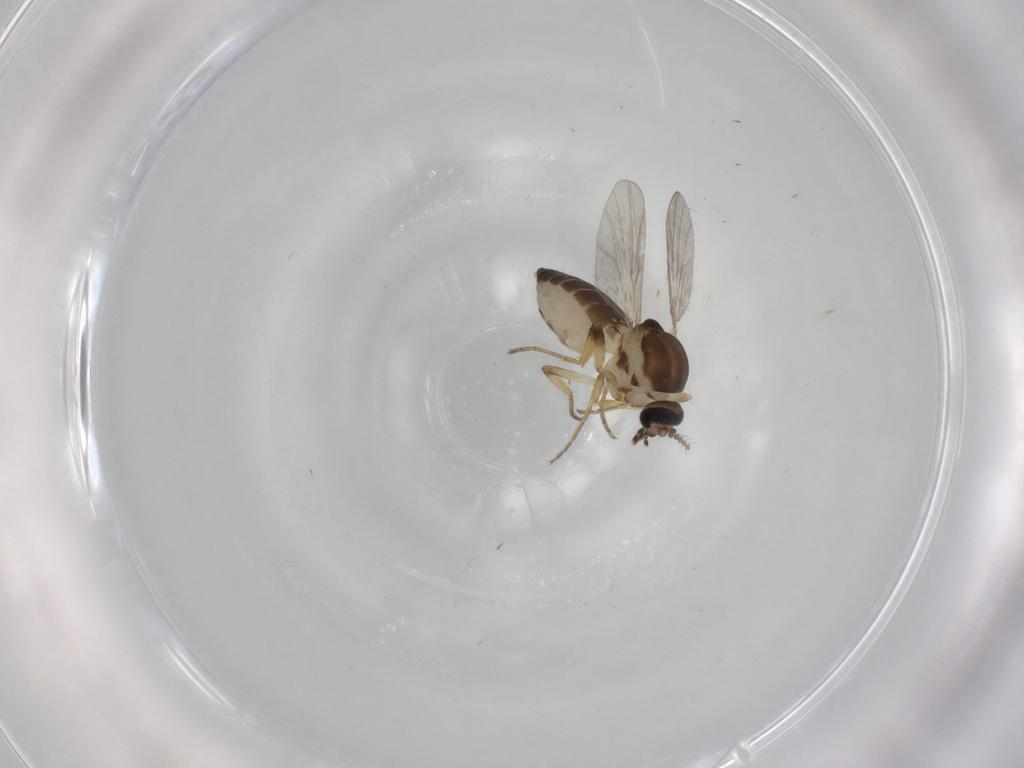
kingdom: Animalia
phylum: Arthropoda
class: Insecta
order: Diptera
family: Ceratopogonidae
